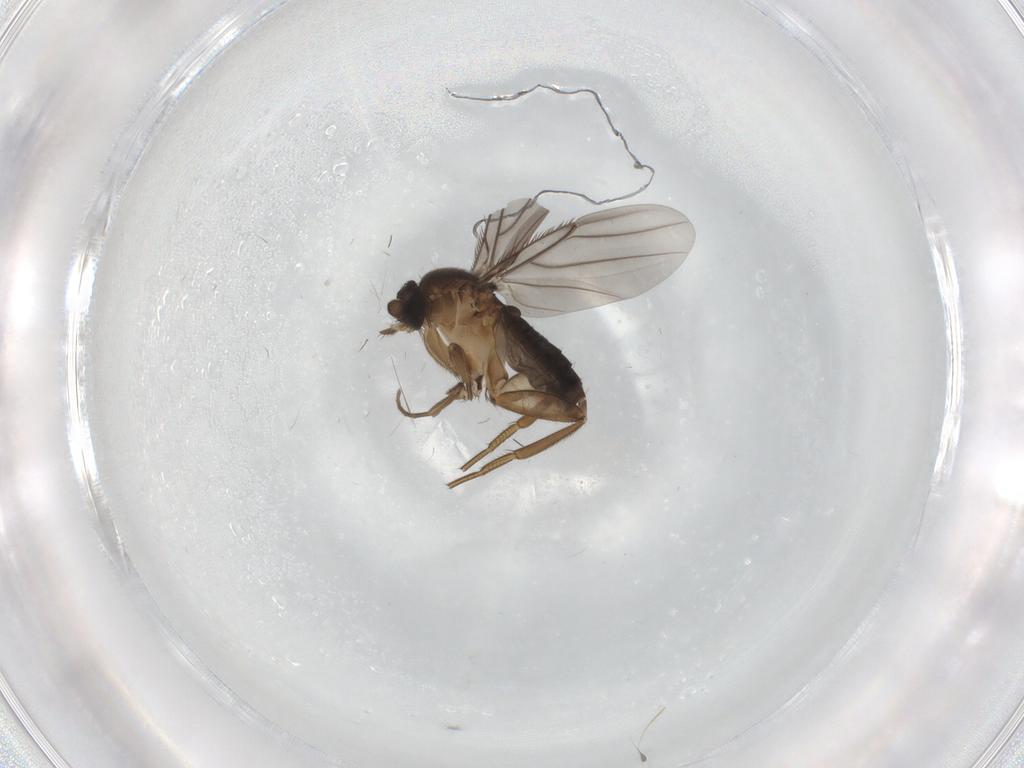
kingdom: Animalia
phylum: Arthropoda
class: Insecta
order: Diptera
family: Phoridae
